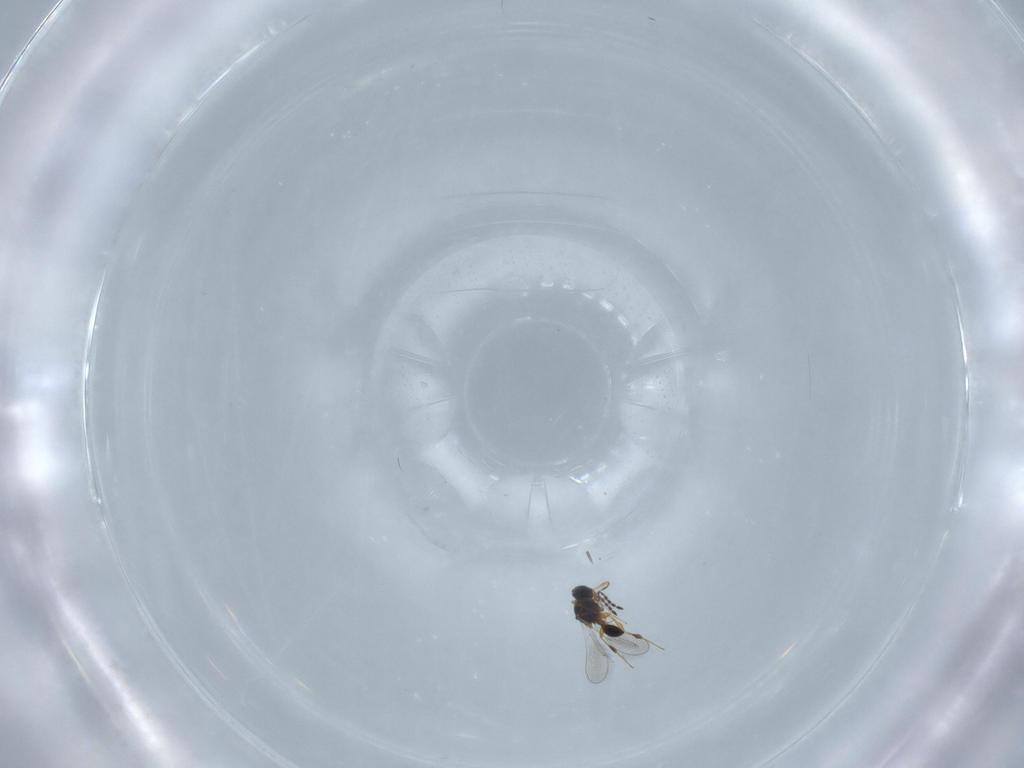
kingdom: Animalia
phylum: Arthropoda
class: Insecta
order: Hymenoptera
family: Platygastridae
